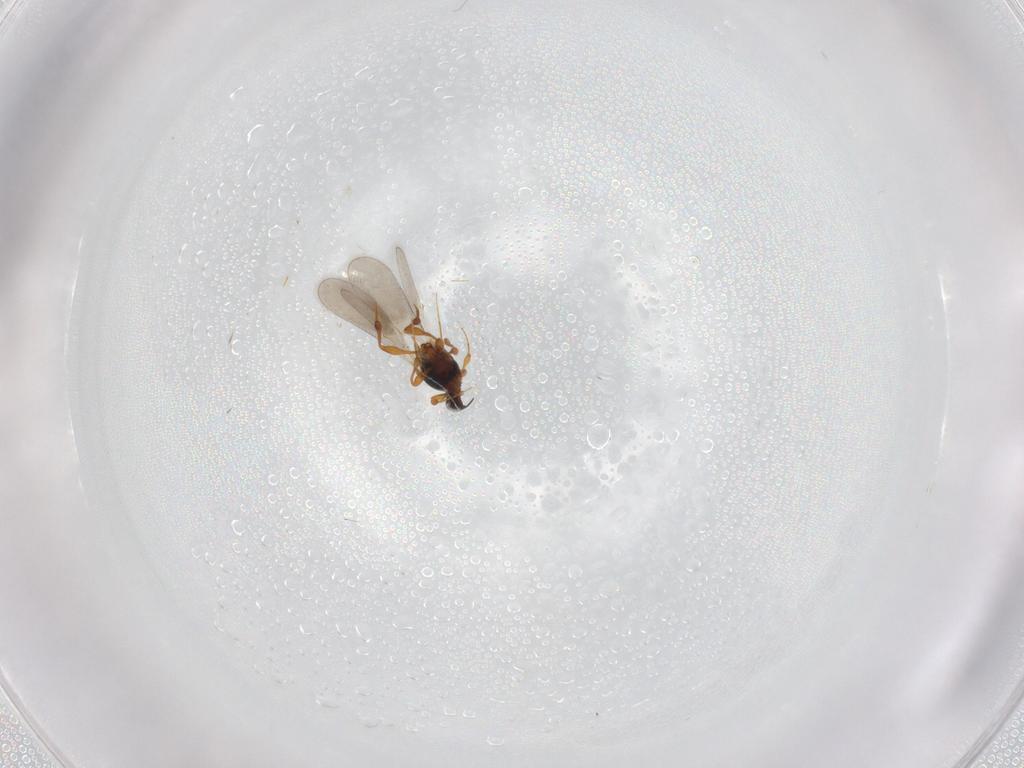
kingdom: Animalia
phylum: Arthropoda
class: Insecta
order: Hymenoptera
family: Platygastridae
